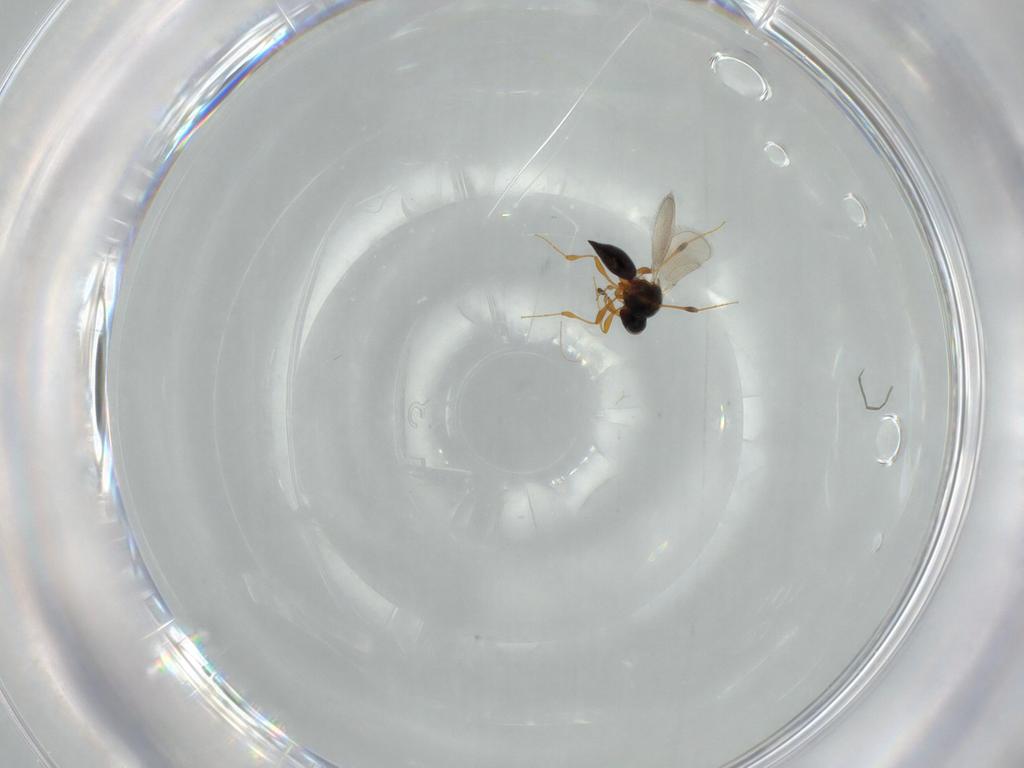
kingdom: Animalia
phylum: Arthropoda
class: Insecta
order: Hymenoptera
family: Platygastridae
